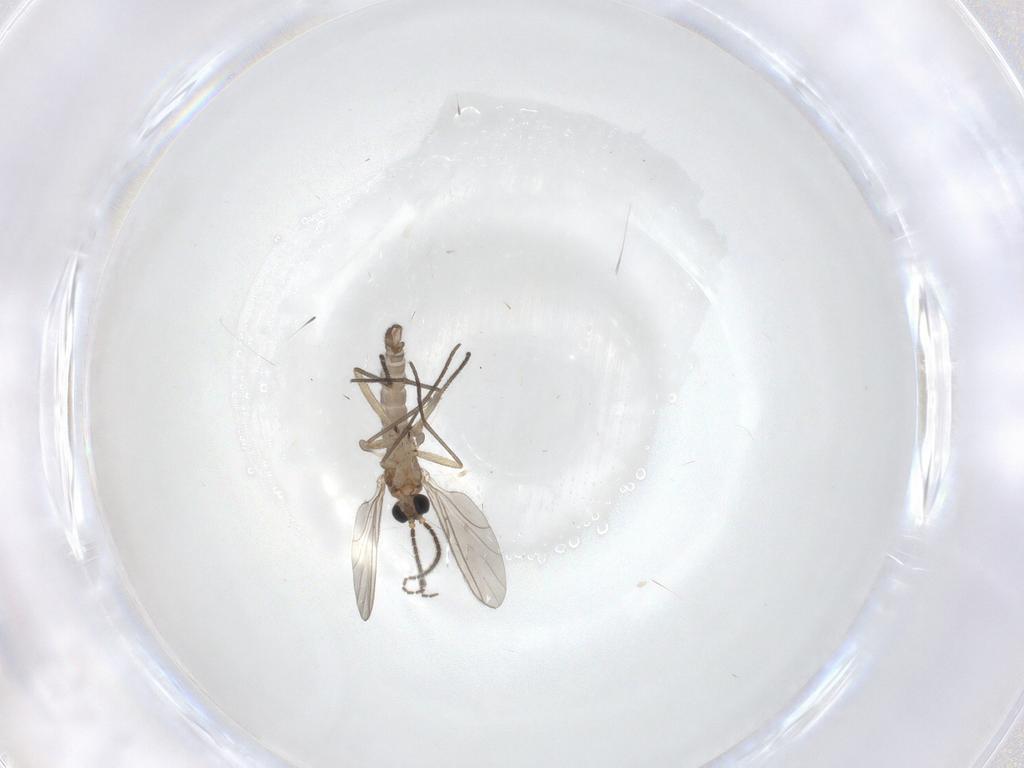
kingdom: Animalia
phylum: Arthropoda
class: Insecta
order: Diptera
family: Sciaridae
